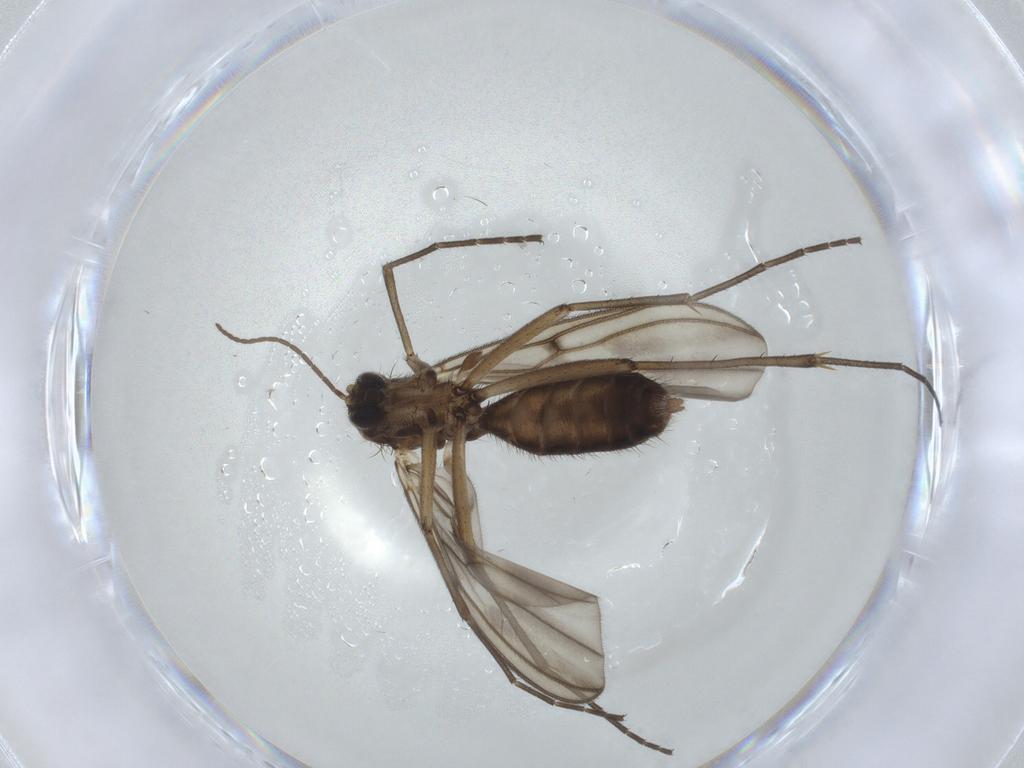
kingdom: Animalia
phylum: Arthropoda
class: Insecta
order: Diptera
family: Mycetophilidae
